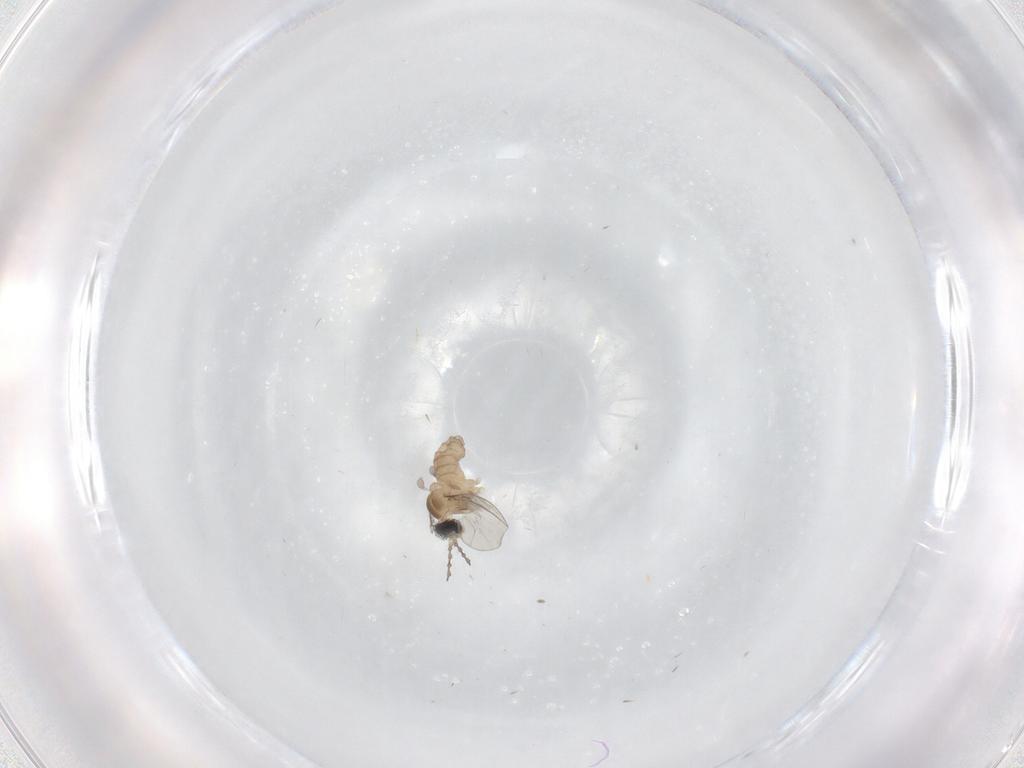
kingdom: Animalia
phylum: Arthropoda
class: Insecta
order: Diptera
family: Cecidomyiidae
